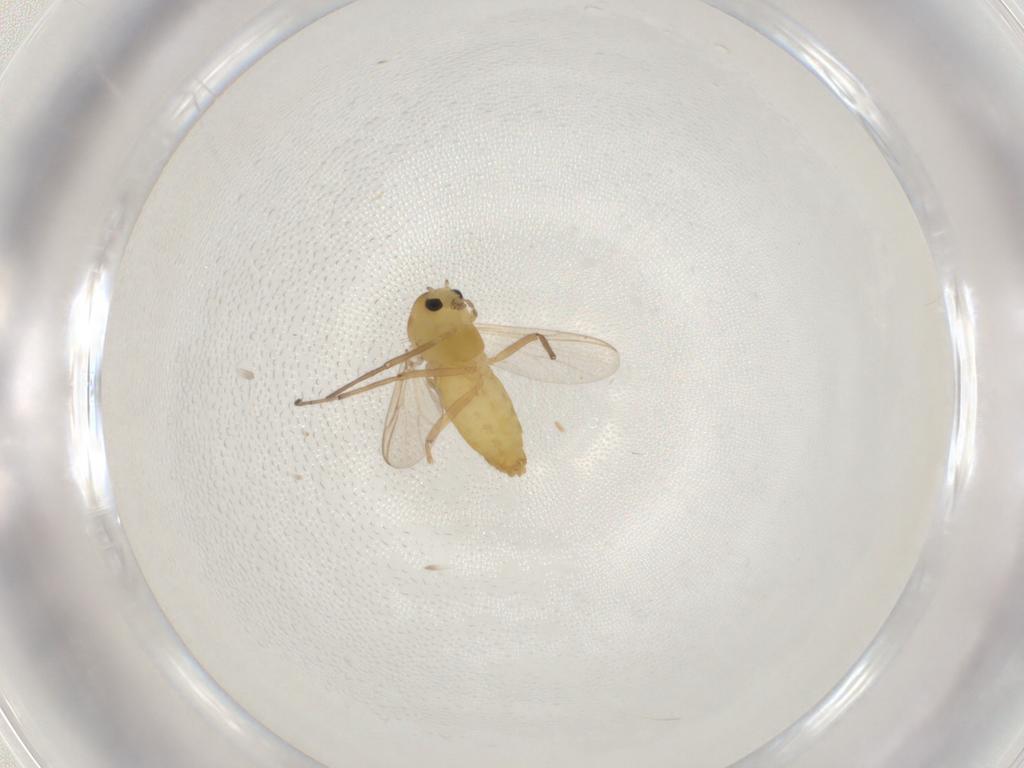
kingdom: Animalia
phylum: Arthropoda
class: Insecta
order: Diptera
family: Chironomidae
